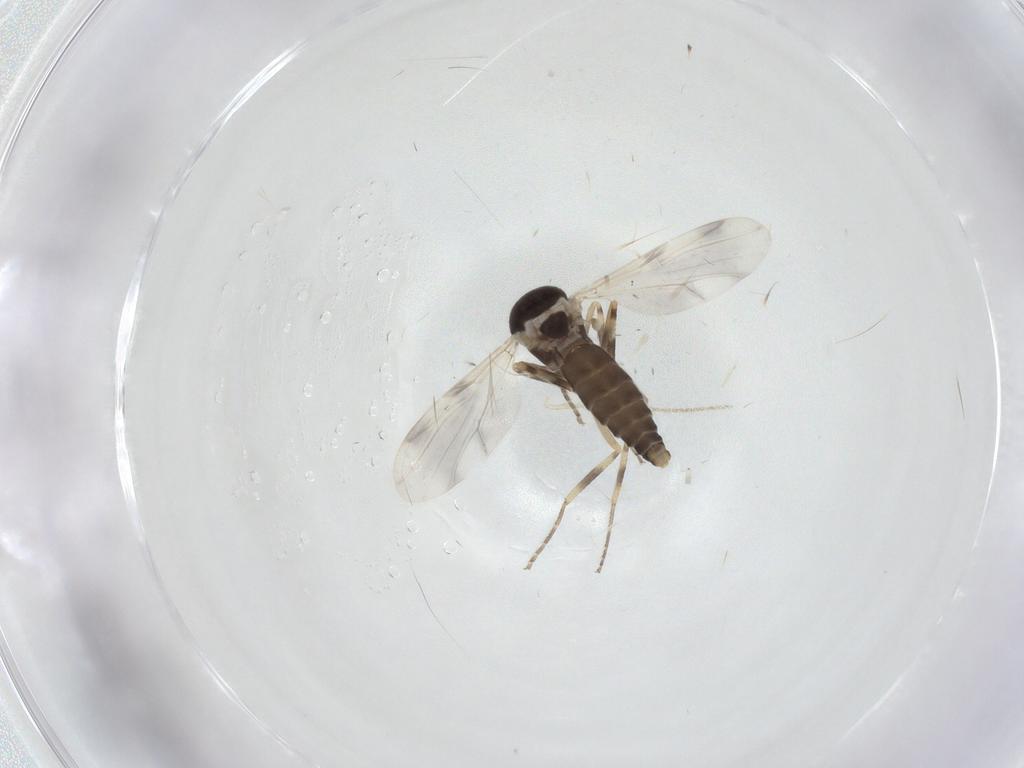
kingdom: Animalia
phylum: Arthropoda
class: Insecta
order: Diptera
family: Ceratopogonidae
